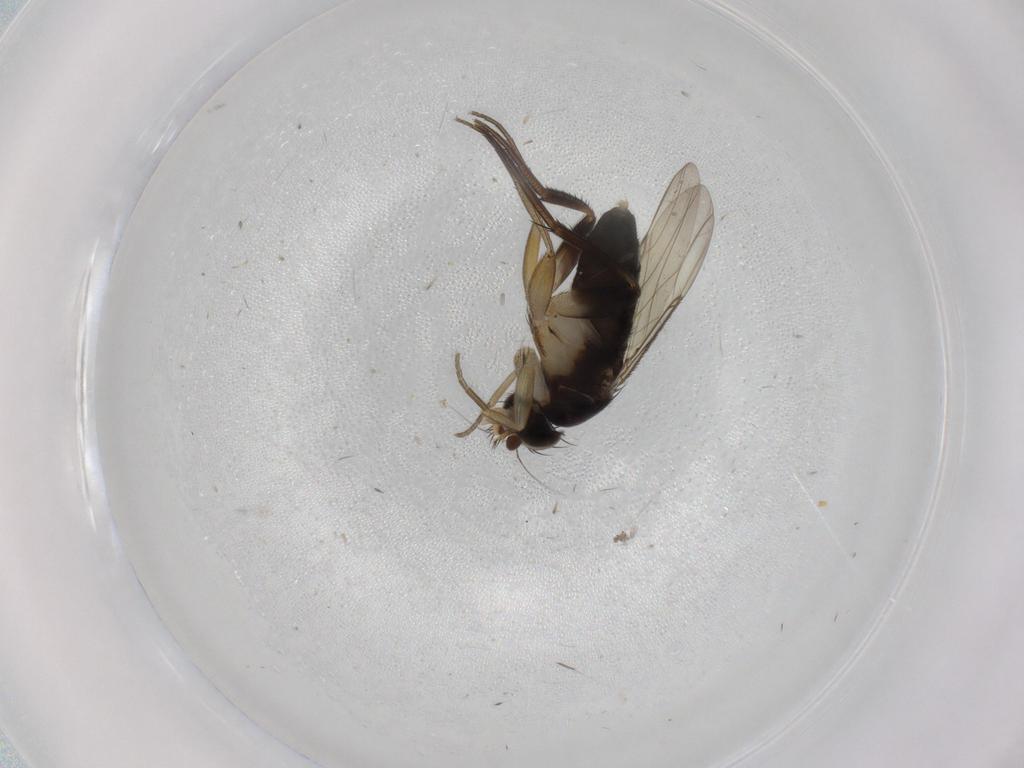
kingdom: Animalia
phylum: Arthropoda
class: Insecta
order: Diptera
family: Phoridae
